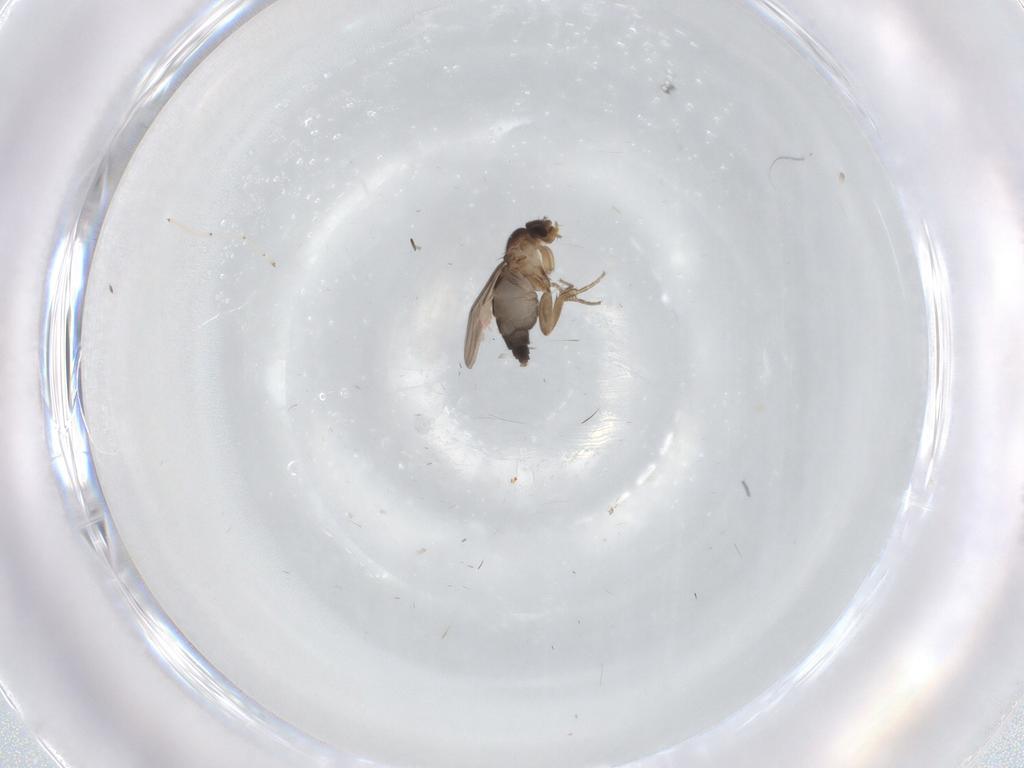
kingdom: Animalia
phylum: Arthropoda
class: Insecta
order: Diptera
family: Phoridae
